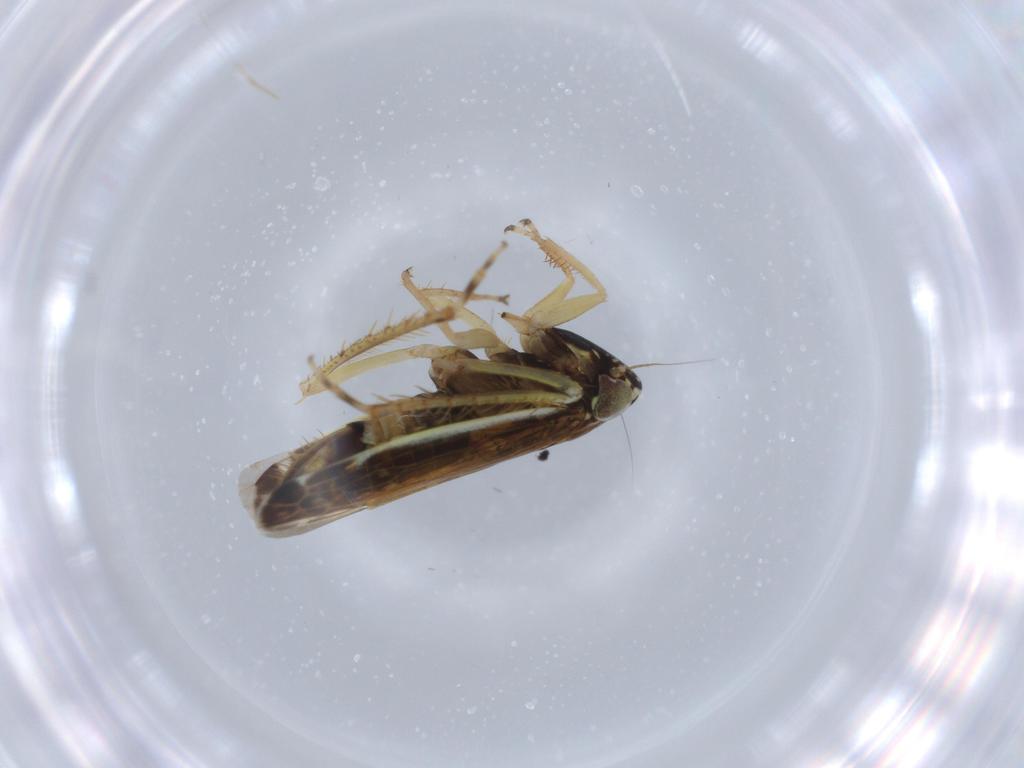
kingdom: Animalia
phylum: Arthropoda
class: Insecta
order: Hemiptera
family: Cicadellidae
